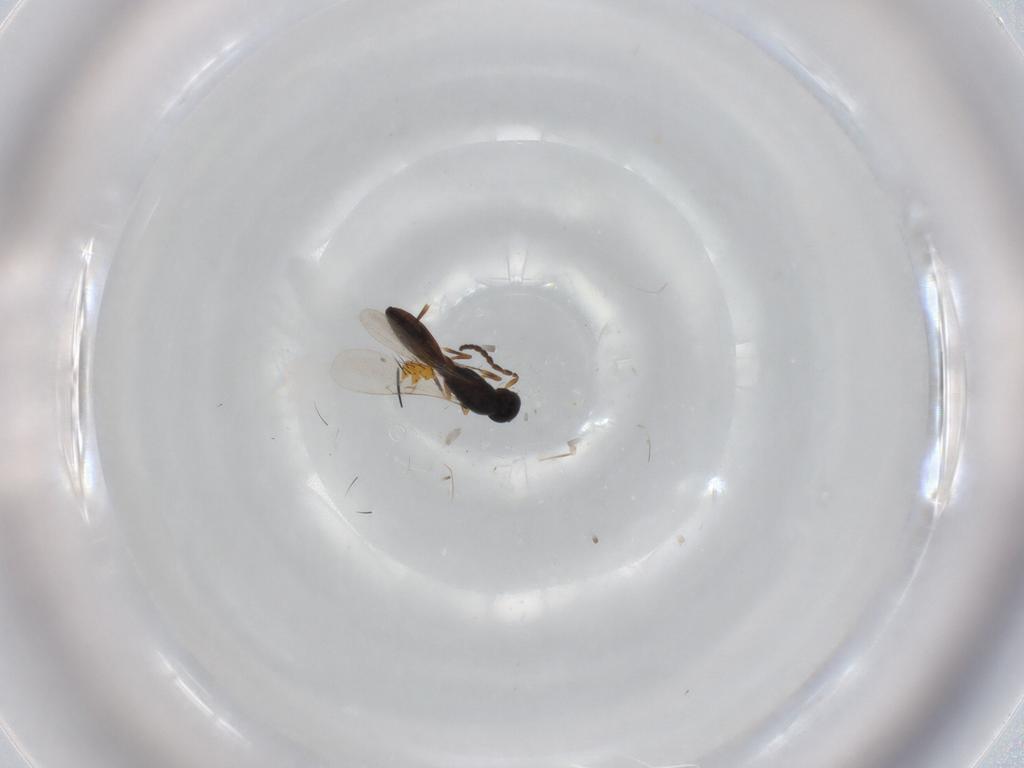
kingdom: Animalia
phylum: Arthropoda
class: Insecta
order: Hymenoptera
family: Scelionidae
